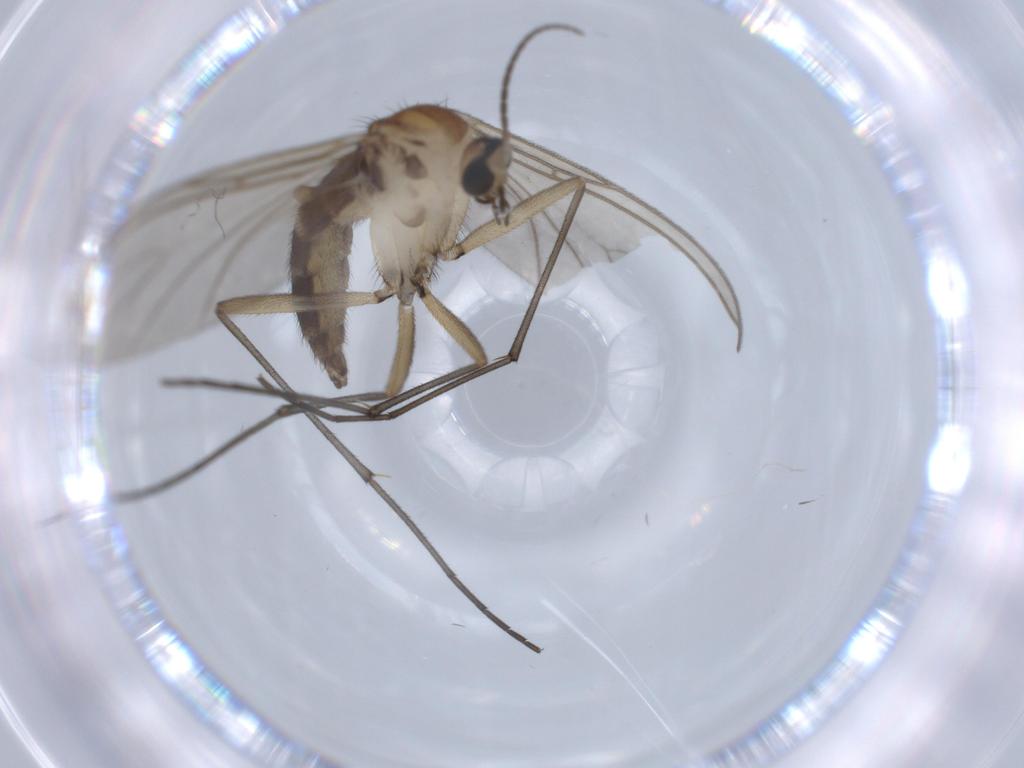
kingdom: Animalia
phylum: Arthropoda
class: Insecta
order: Diptera
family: Sciaridae
